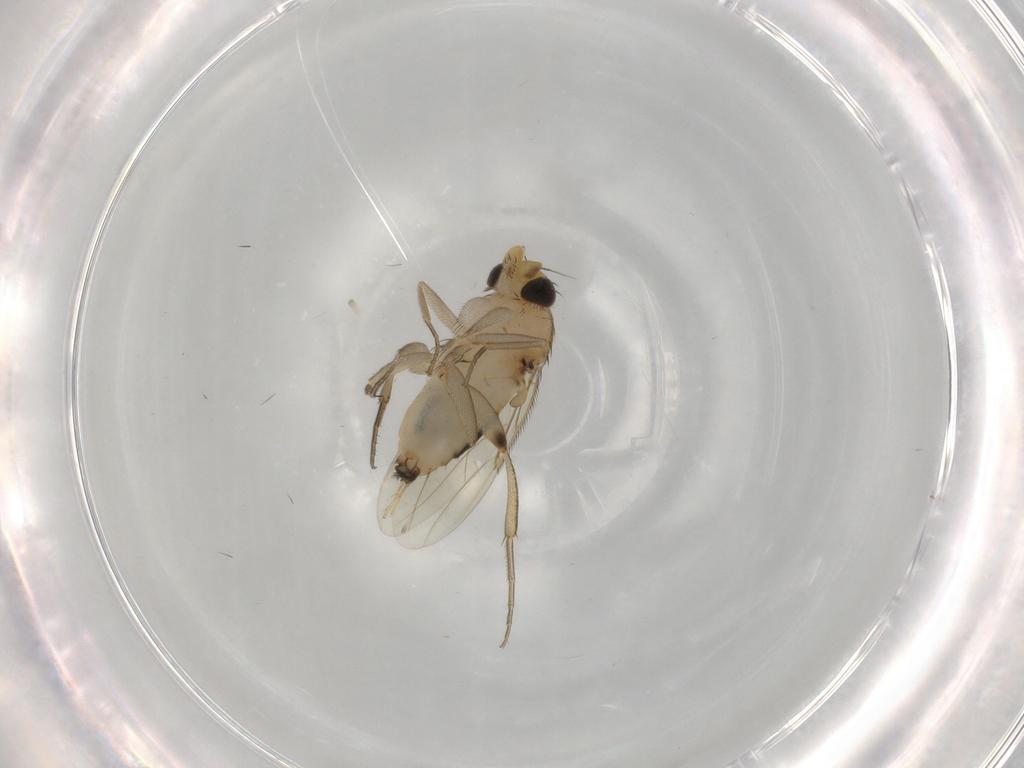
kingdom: Animalia
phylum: Arthropoda
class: Insecta
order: Diptera
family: Phoridae
